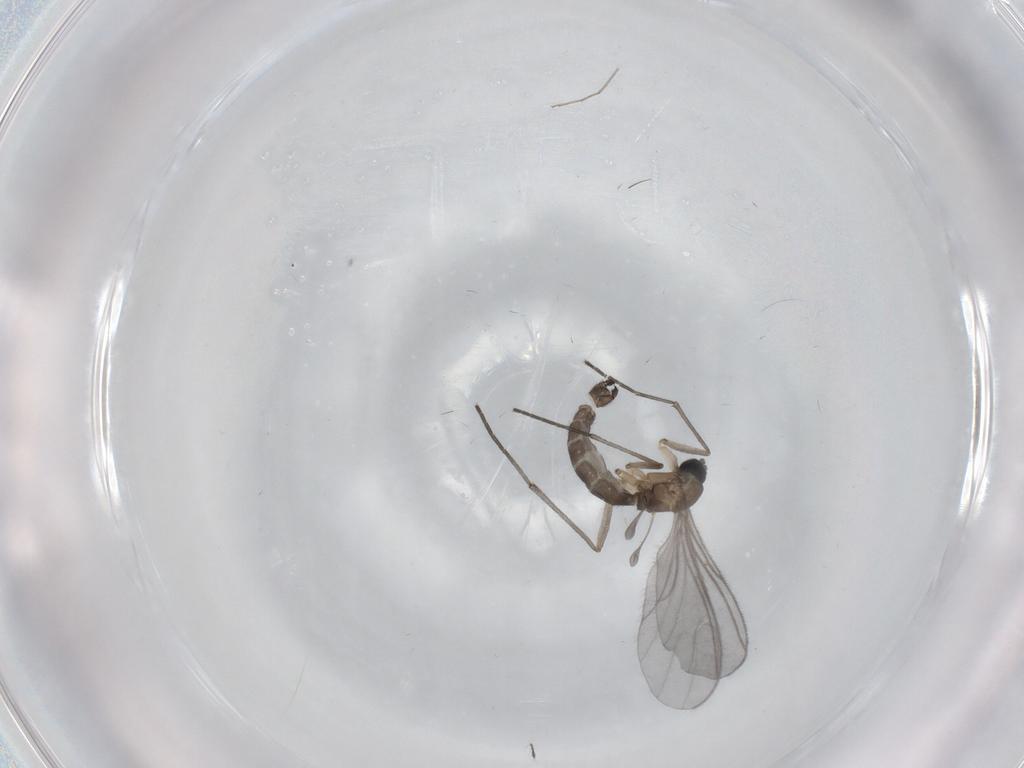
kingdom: Animalia
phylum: Arthropoda
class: Insecta
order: Diptera
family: Sciaridae
